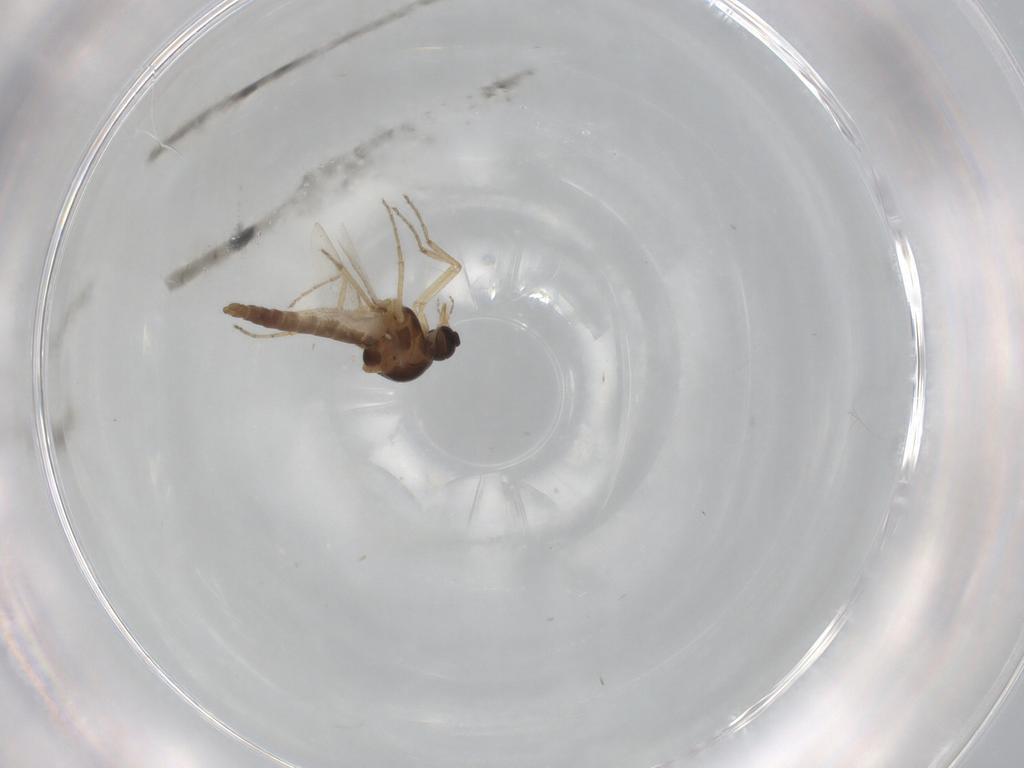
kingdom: Animalia
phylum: Arthropoda
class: Insecta
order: Diptera
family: Ceratopogonidae
